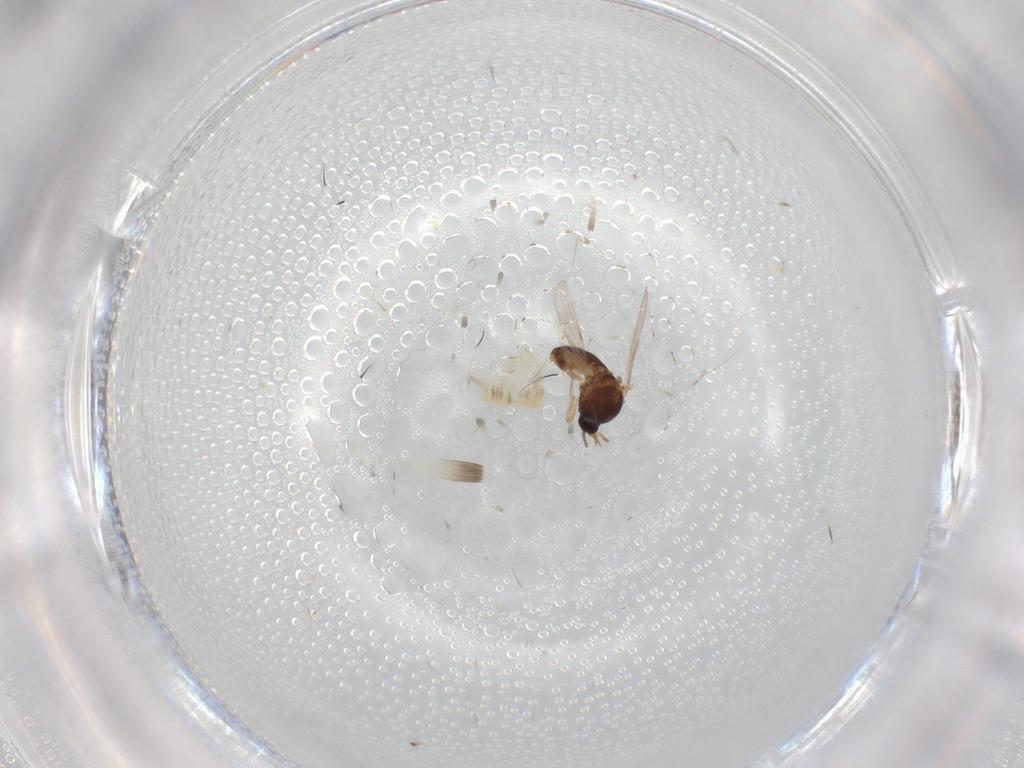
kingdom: Animalia
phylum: Arthropoda
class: Insecta
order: Diptera
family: Ceratopogonidae
